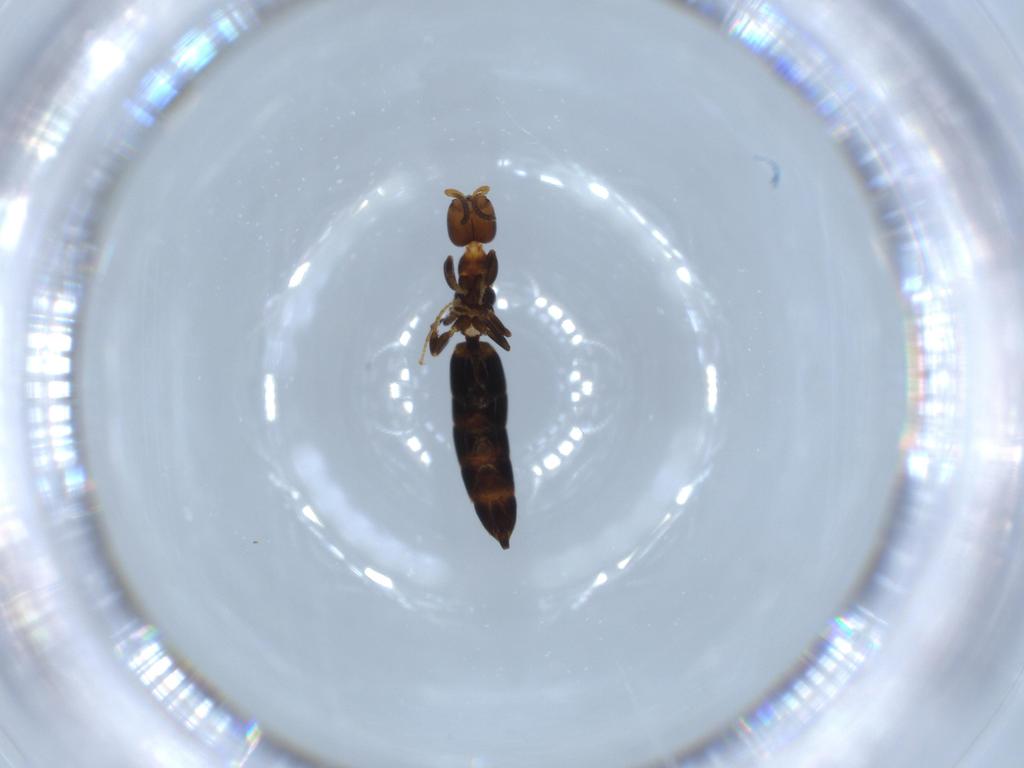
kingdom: Animalia
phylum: Arthropoda
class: Insecta
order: Hymenoptera
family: Bethylidae
